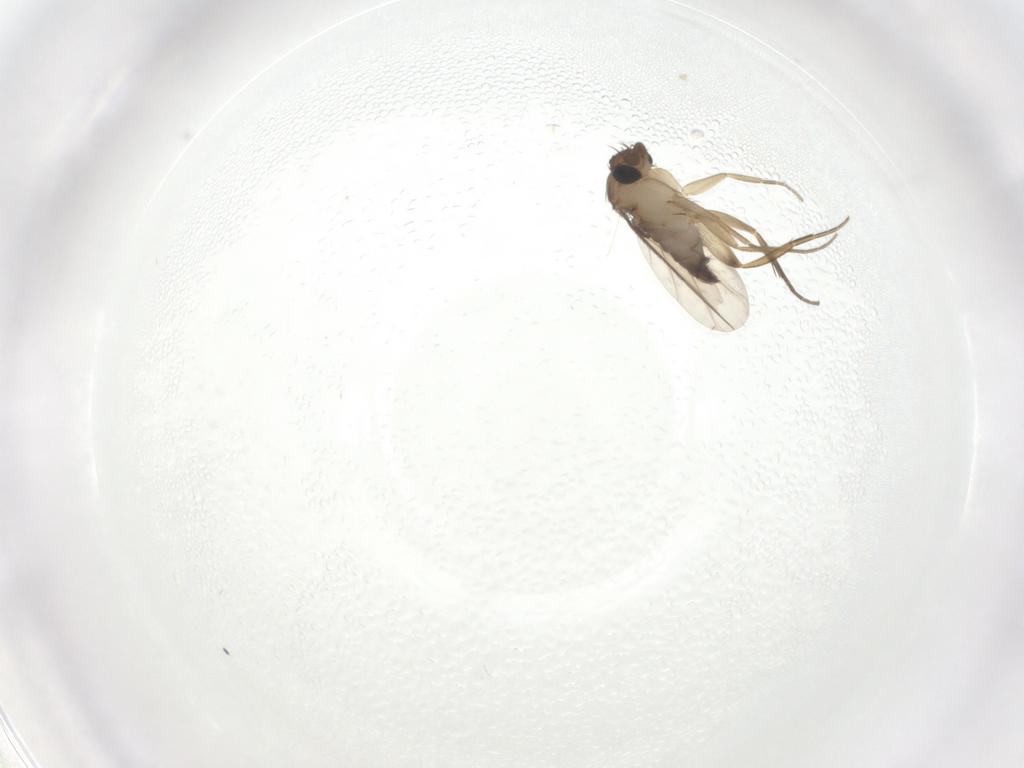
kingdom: Animalia
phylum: Arthropoda
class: Insecta
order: Diptera
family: Phoridae
